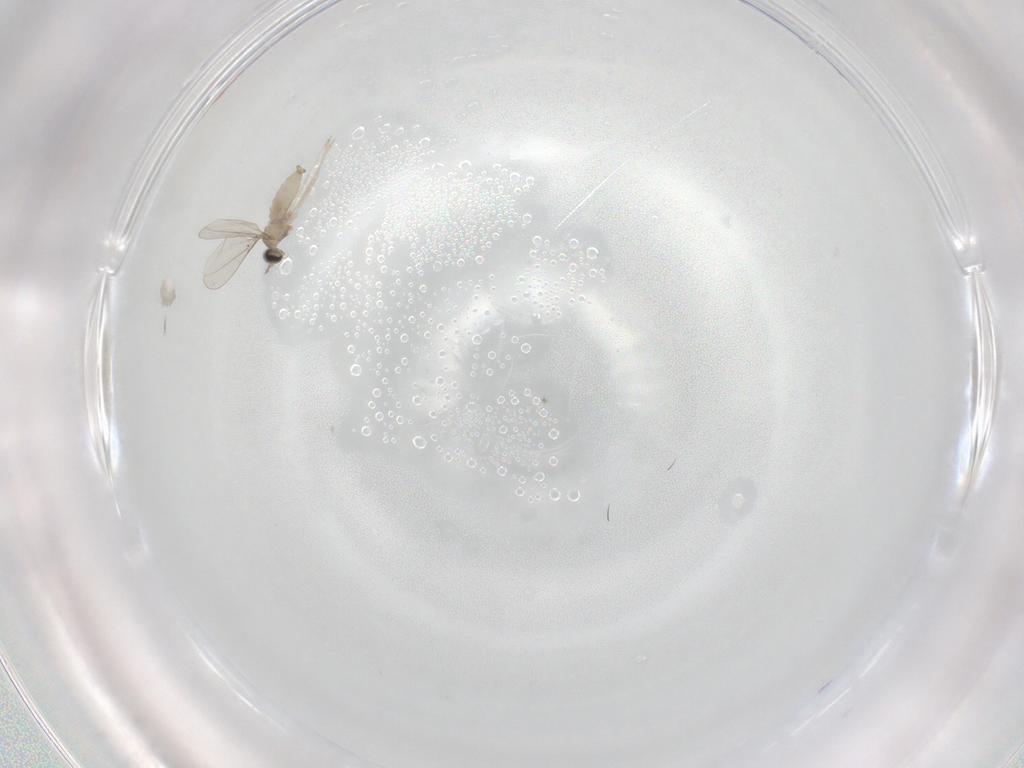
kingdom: Animalia
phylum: Arthropoda
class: Insecta
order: Diptera
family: Cecidomyiidae
